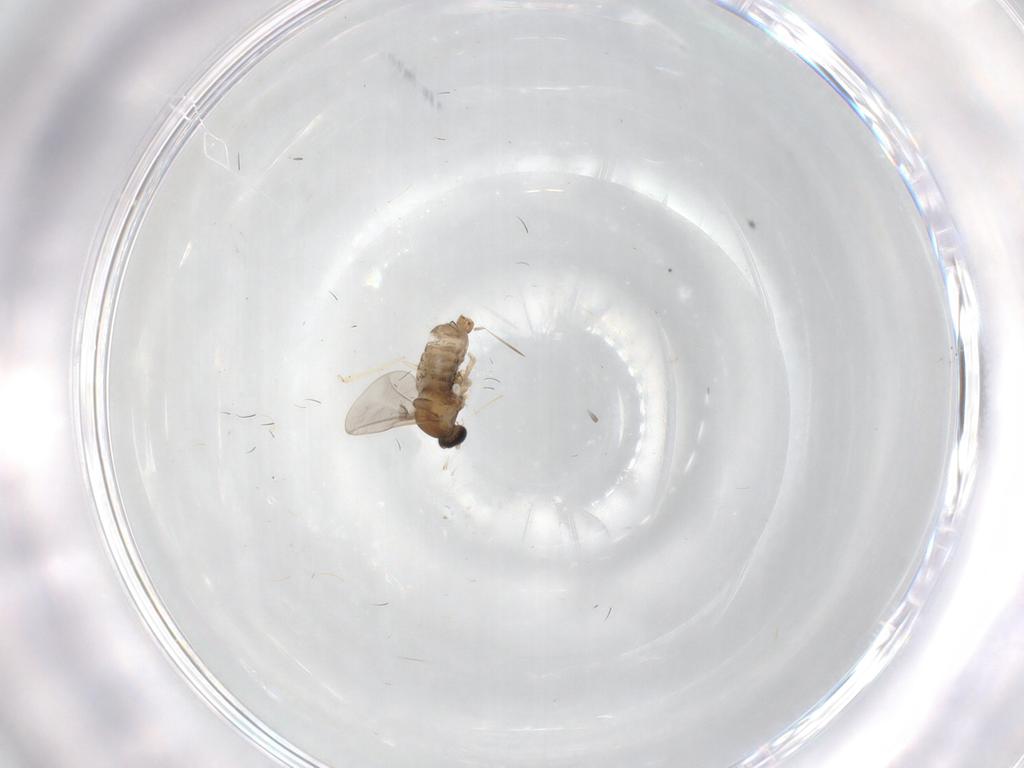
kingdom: Animalia
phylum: Arthropoda
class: Insecta
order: Diptera
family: Cecidomyiidae
